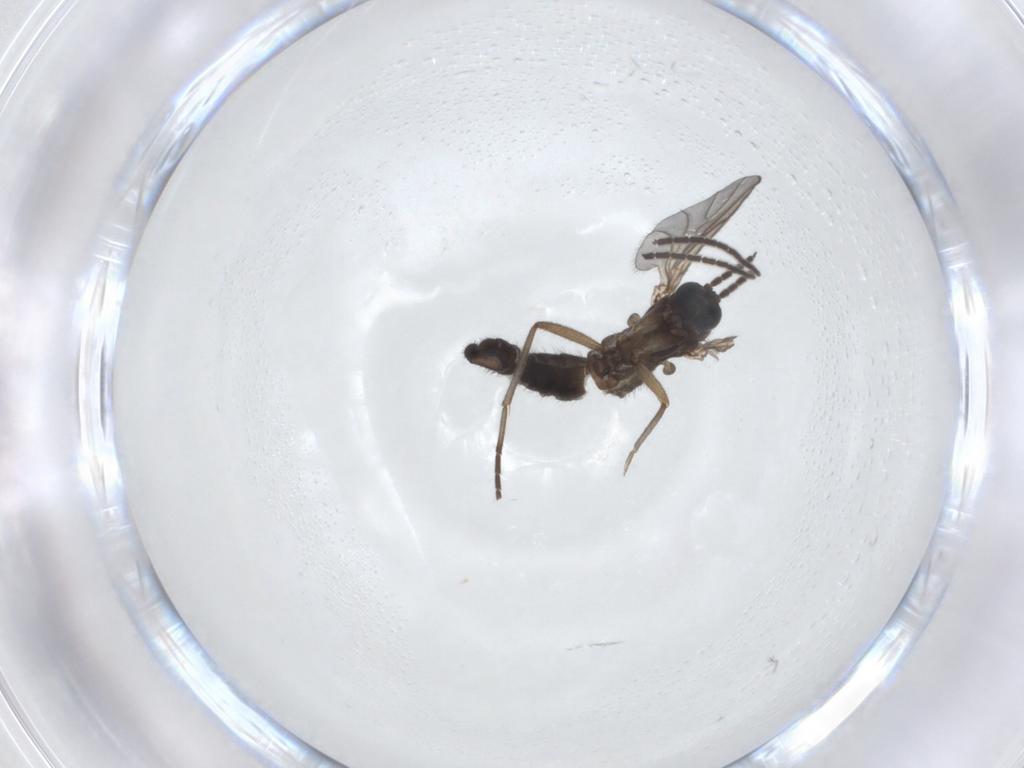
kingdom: Animalia
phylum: Arthropoda
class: Insecta
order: Diptera
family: Sciaridae
